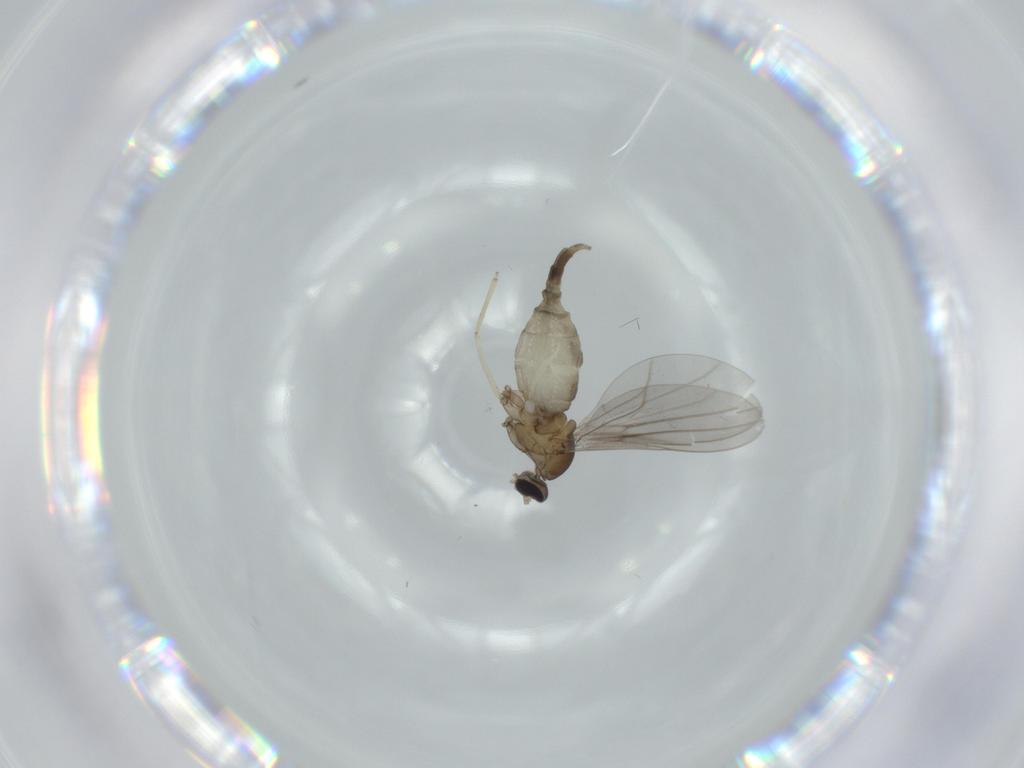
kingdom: Animalia
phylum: Arthropoda
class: Insecta
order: Diptera
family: Cecidomyiidae
